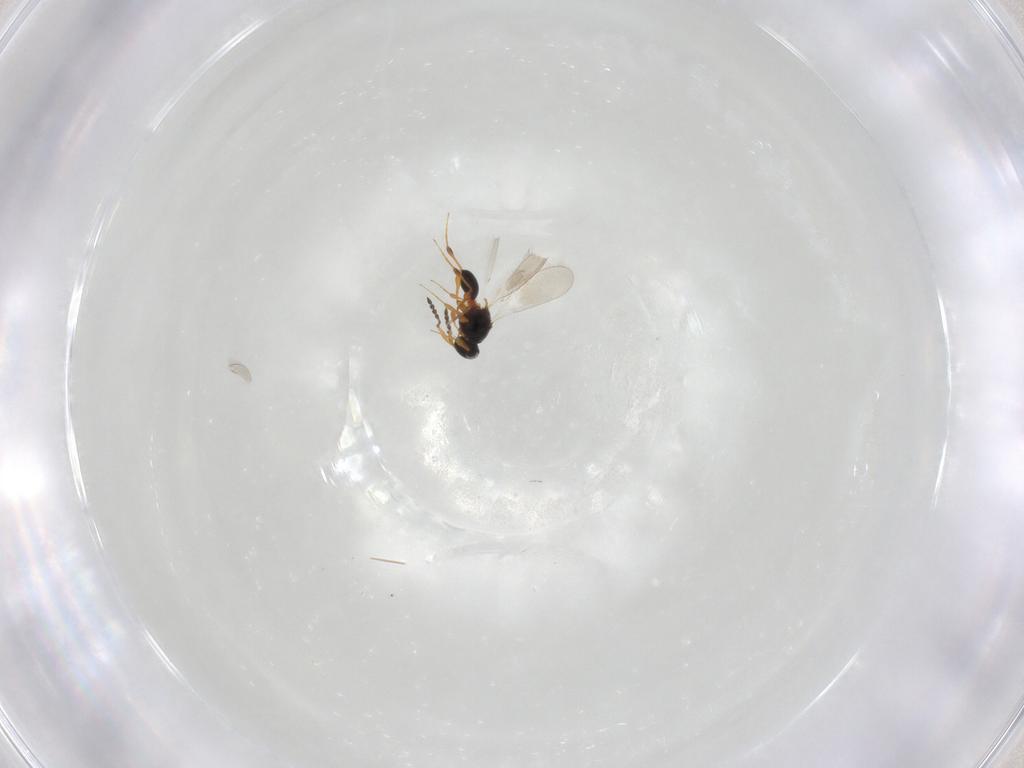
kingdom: Animalia
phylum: Arthropoda
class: Insecta
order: Hymenoptera
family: Platygastridae
